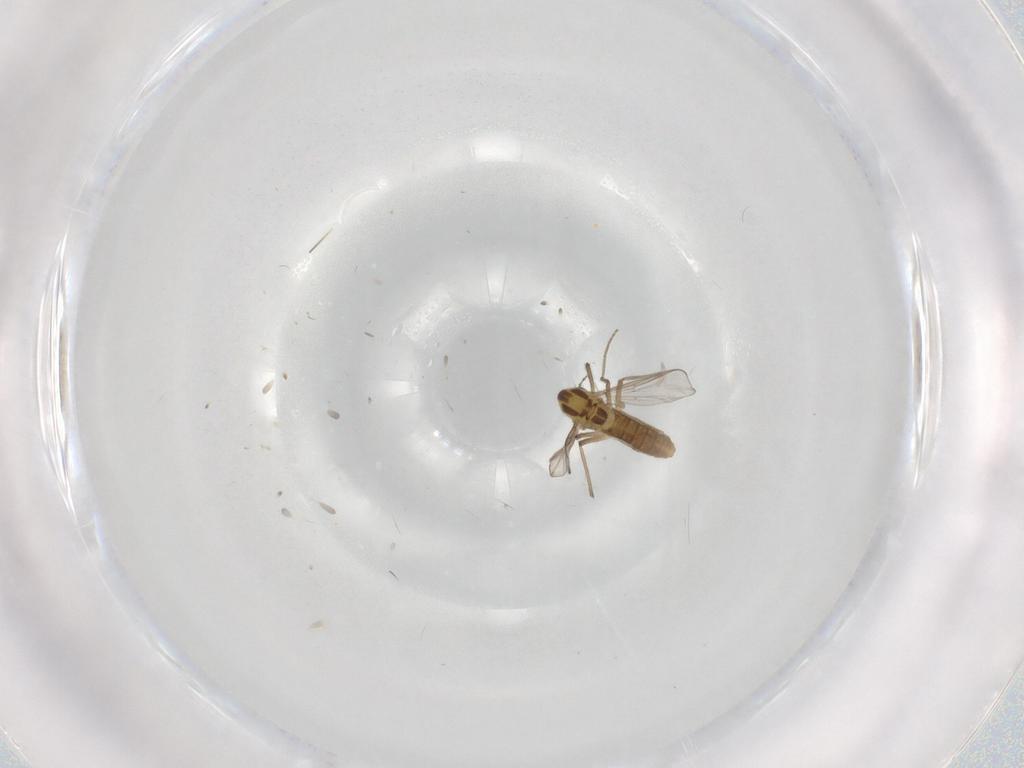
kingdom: Animalia
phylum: Arthropoda
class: Insecta
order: Diptera
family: Chironomidae
